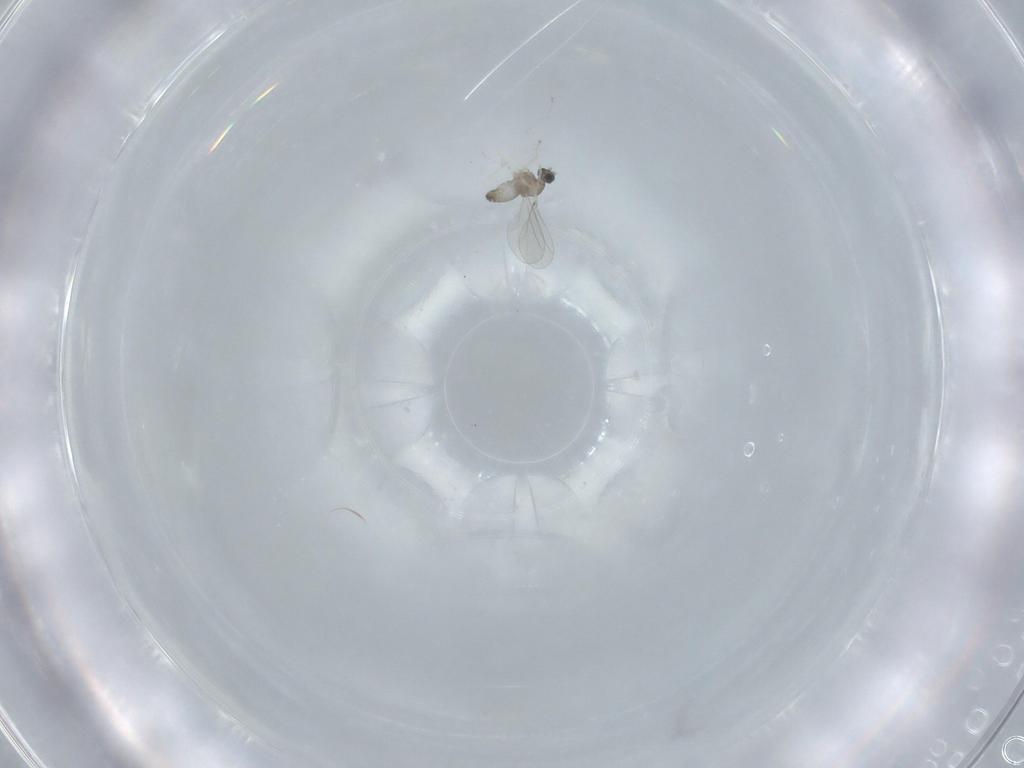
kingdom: Animalia
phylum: Arthropoda
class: Insecta
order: Diptera
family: Cecidomyiidae
